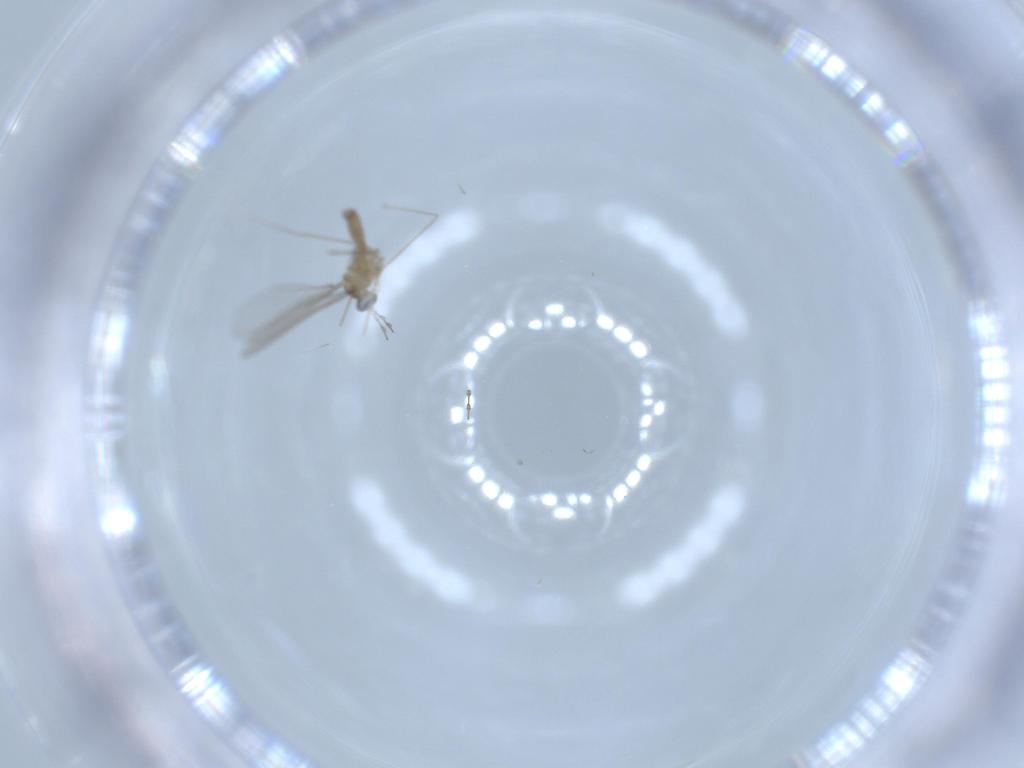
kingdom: Animalia
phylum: Arthropoda
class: Insecta
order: Diptera
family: Cecidomyiidae
